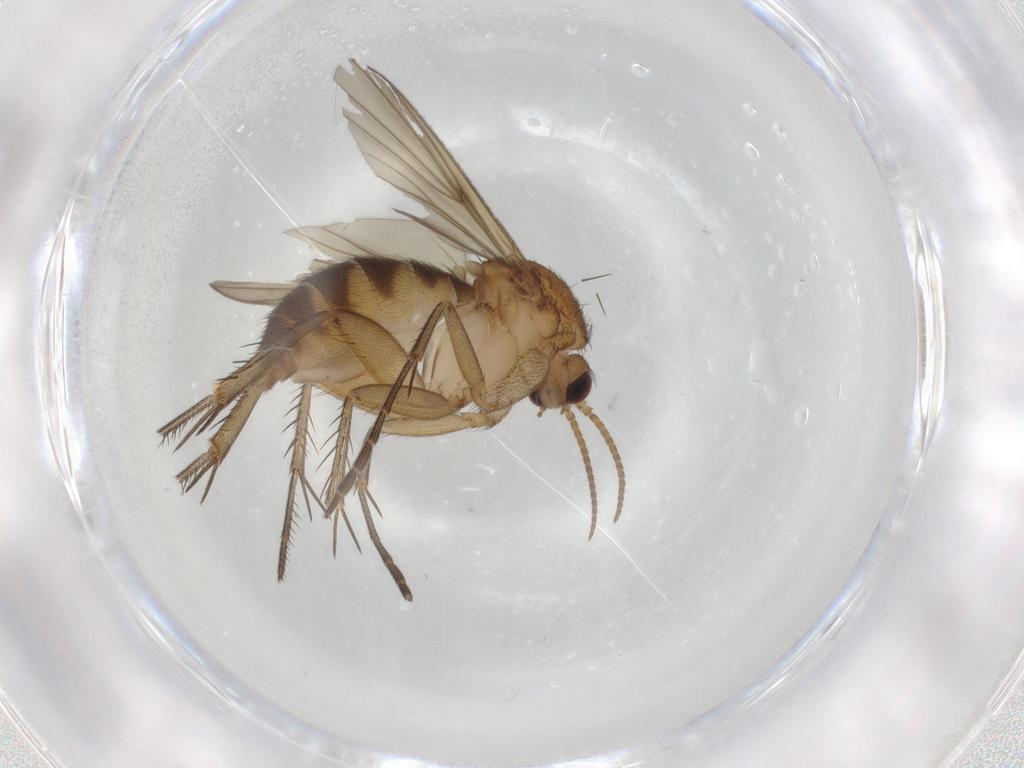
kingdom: Animalia
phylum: Arthropoda
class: Insecta
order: Diptera
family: Mycetophilidae
